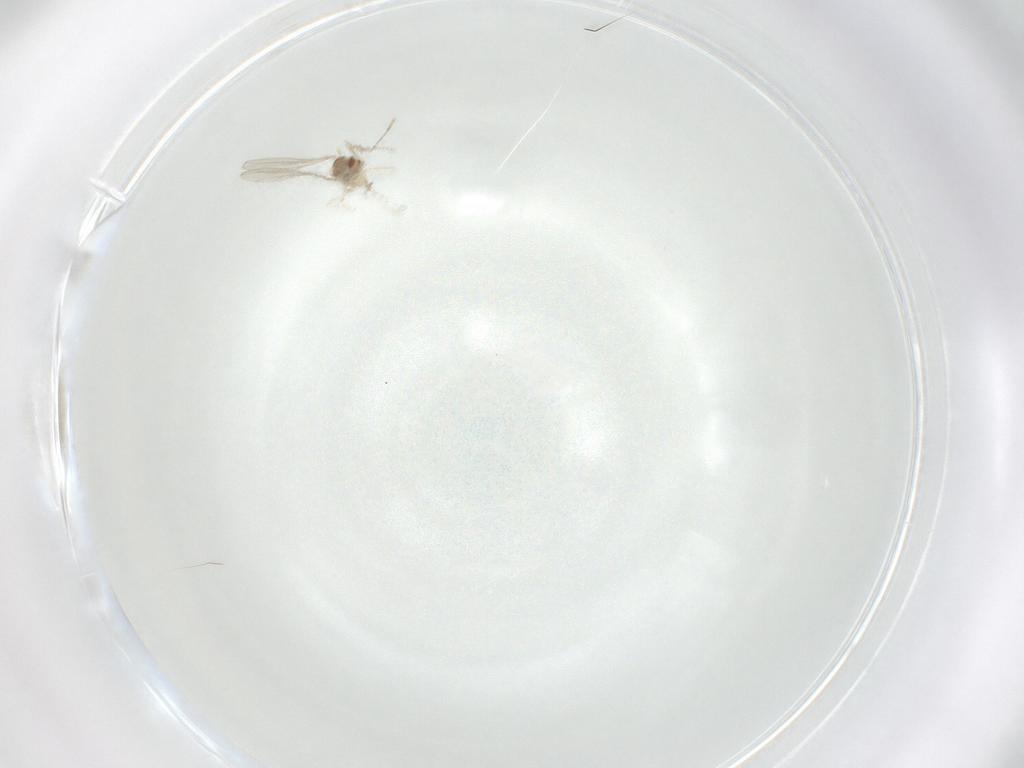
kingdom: Animalia
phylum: Arthropoda
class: Insecta
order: Diptera
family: Cecidomyiidae
